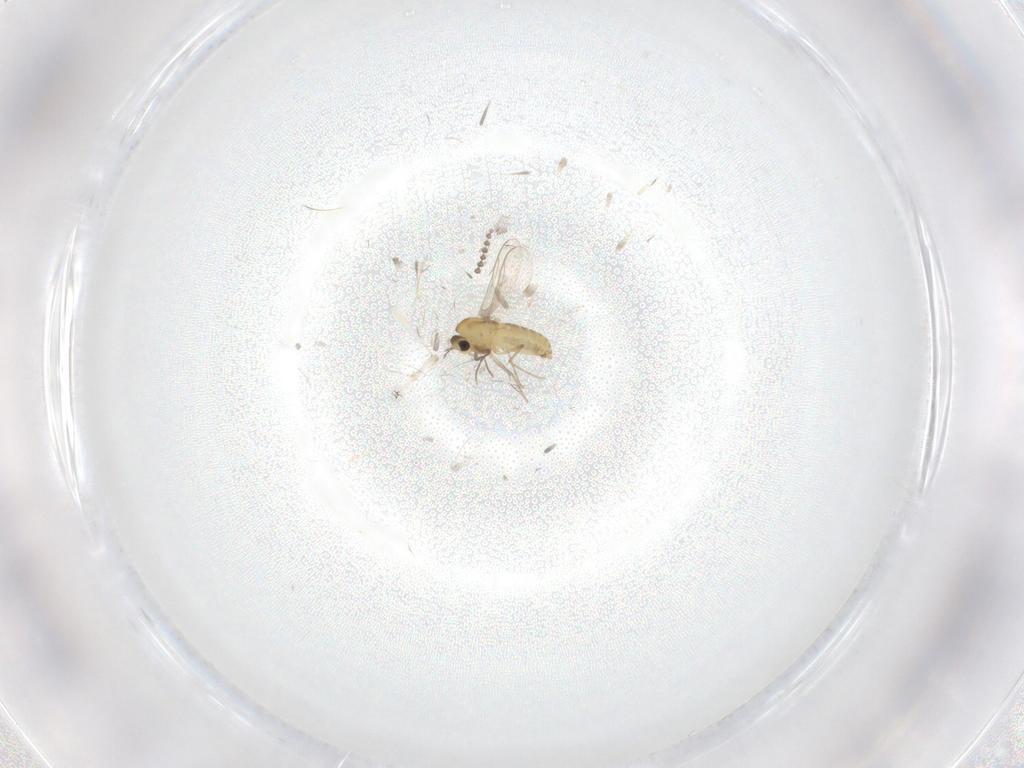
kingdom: Animalia
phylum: Arthropoda
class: Insecta
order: Diptera
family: Chironomidae
